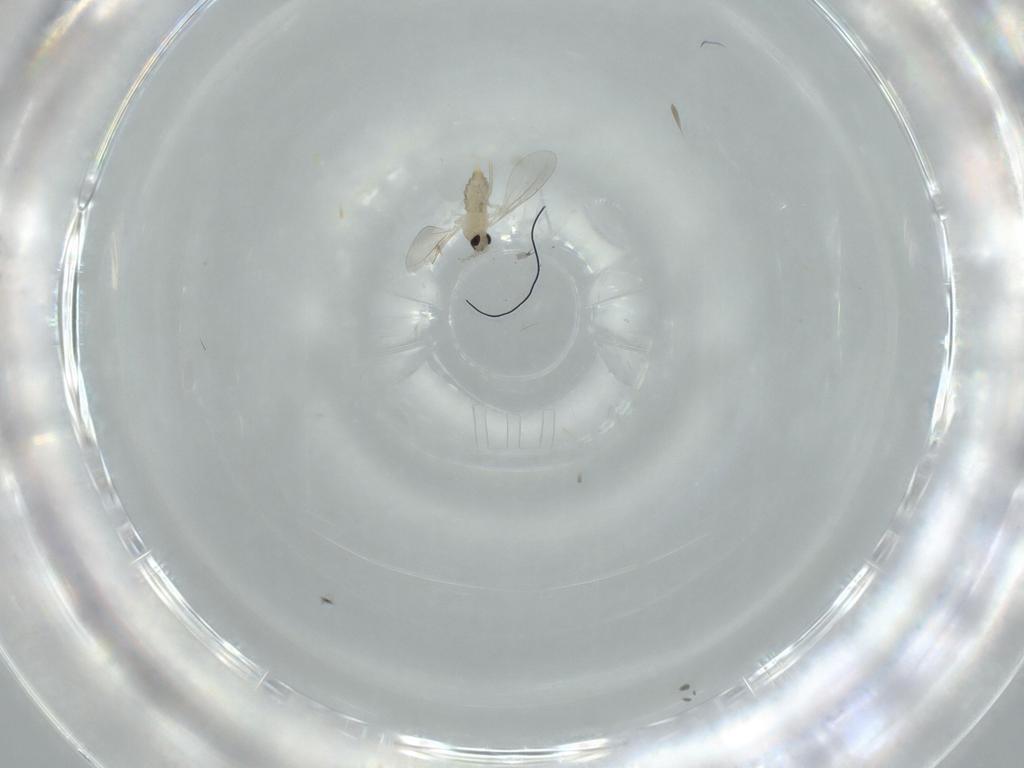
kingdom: Animalia
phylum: Arthropoda
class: Insecta
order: Diptera
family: Cecidomyiidae
